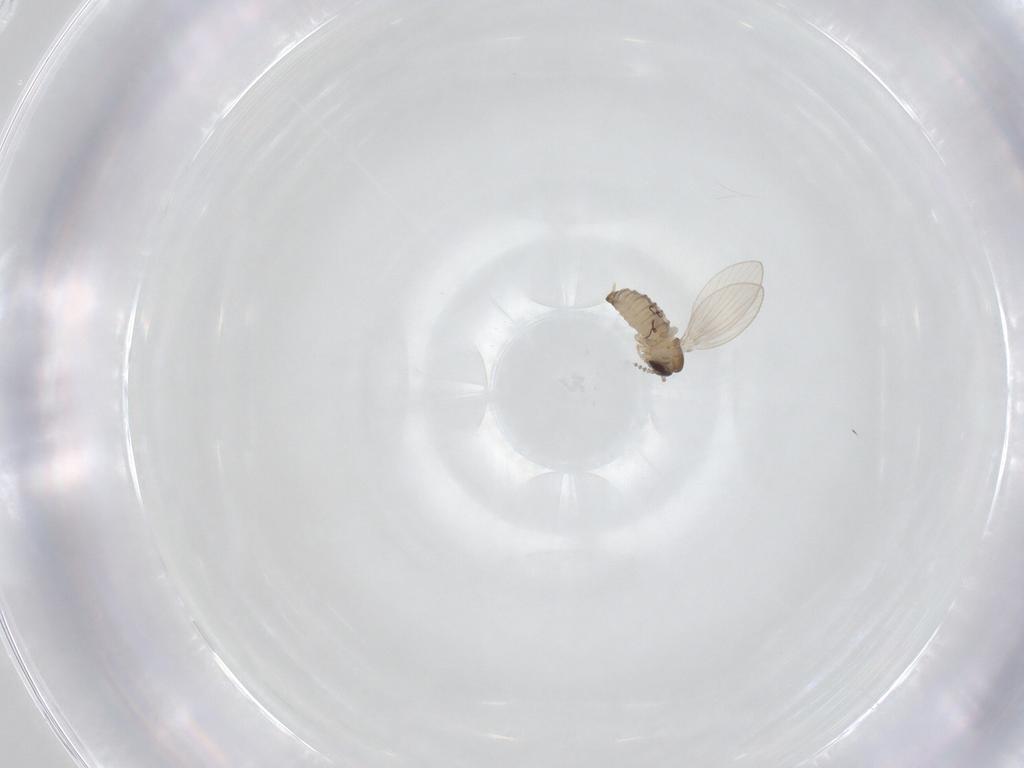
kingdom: Animalia
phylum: Arthropoda
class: Insecta
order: Diptera
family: Psychodidae
